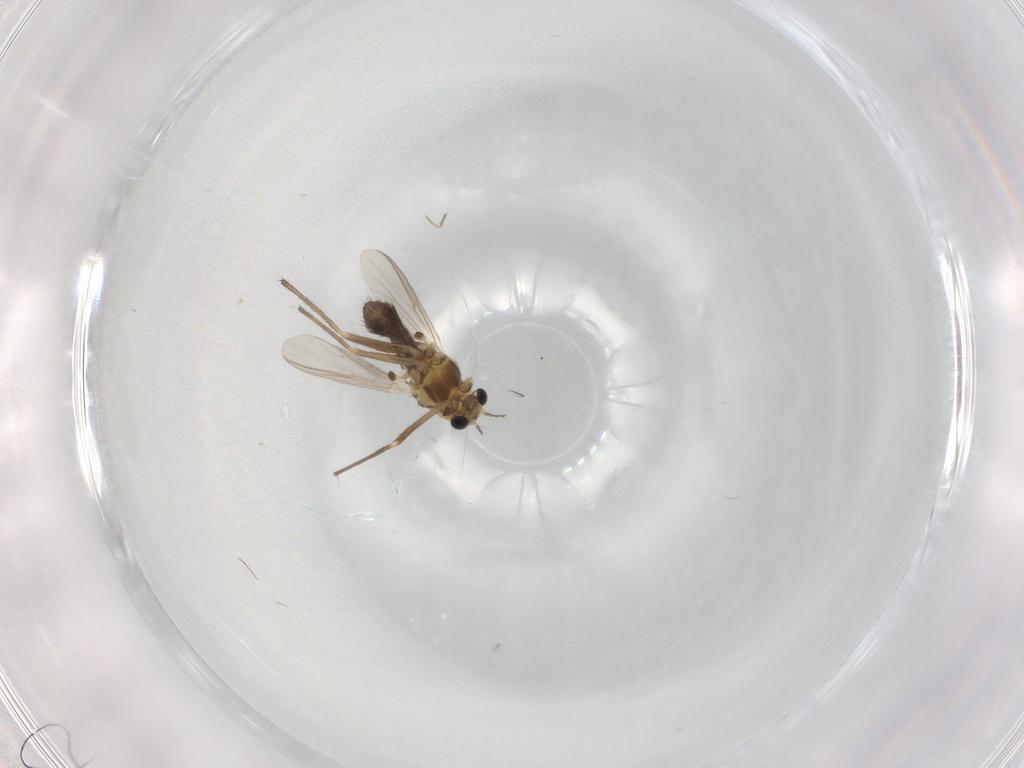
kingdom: Animalia
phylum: Arthropoda
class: Insecta
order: Diptera
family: Chironomidae
